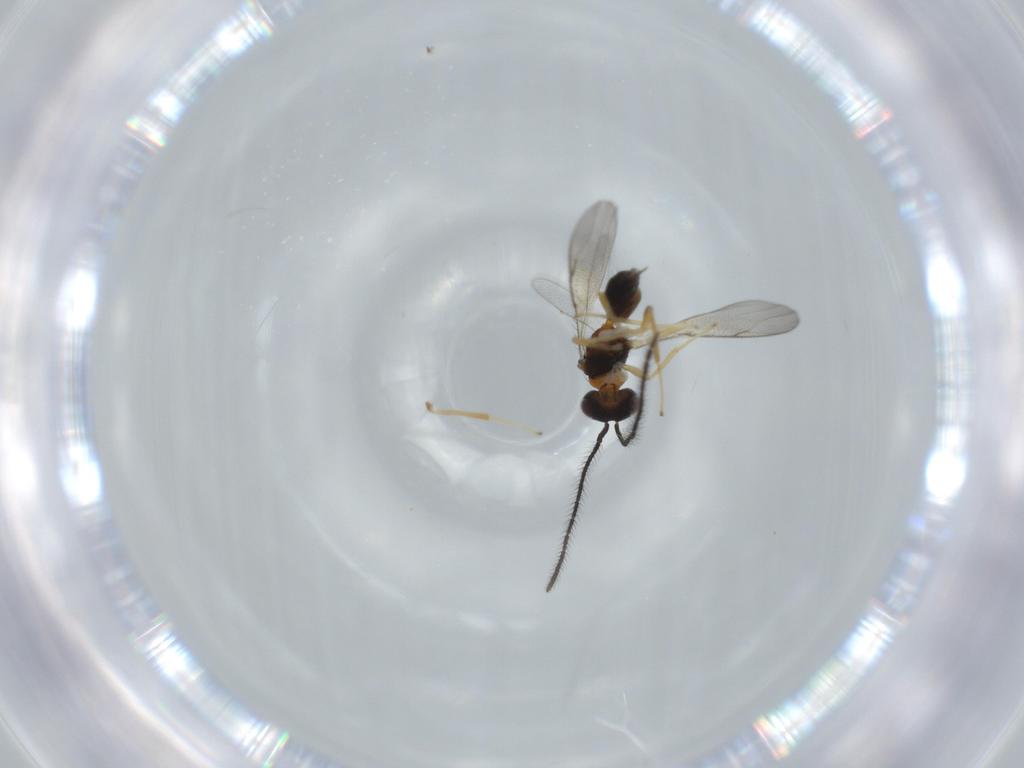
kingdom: Animalia
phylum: Arthropoda
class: Insecta
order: Hymenoptera
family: Diparidae
